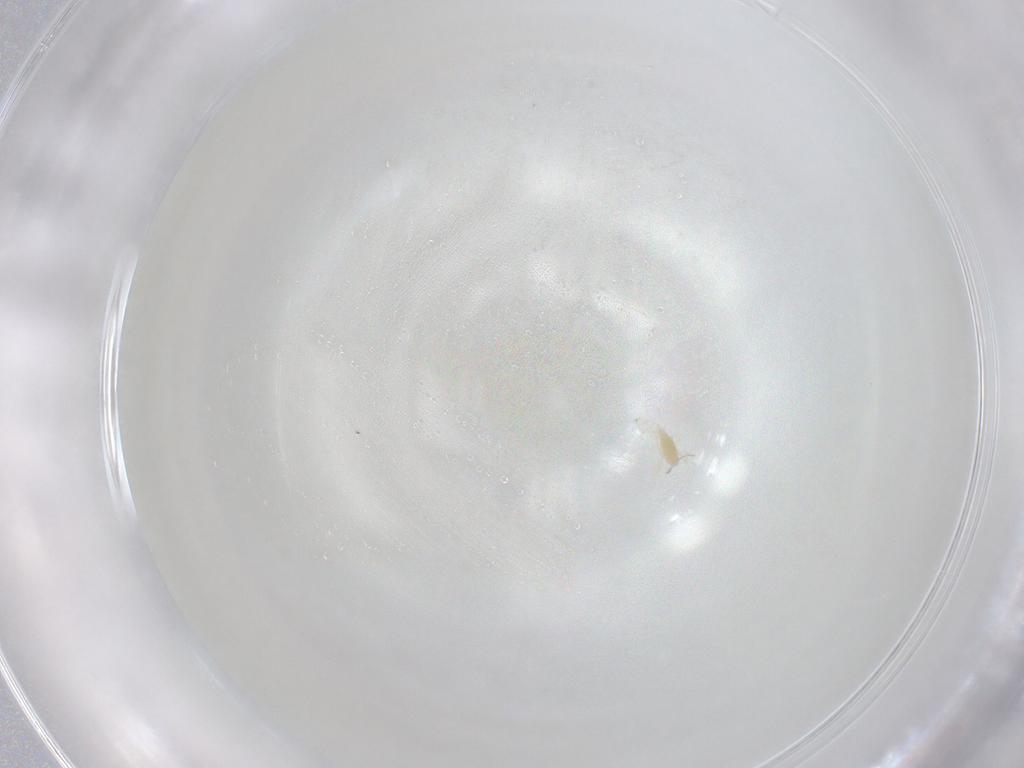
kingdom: Animalia
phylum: Arthropoda
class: Arachnida
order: Trombidiformes
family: Eupodidae
